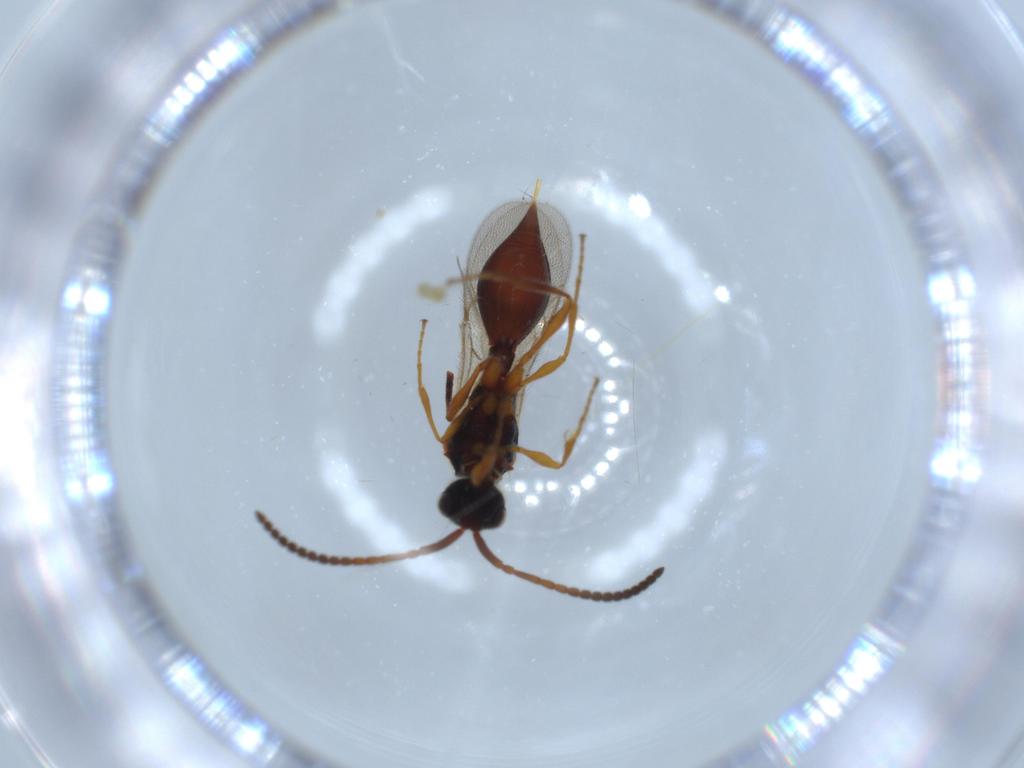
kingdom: Animalia
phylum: Arthropoda
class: Insecta
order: Hymenoptera
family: Diapriidae
